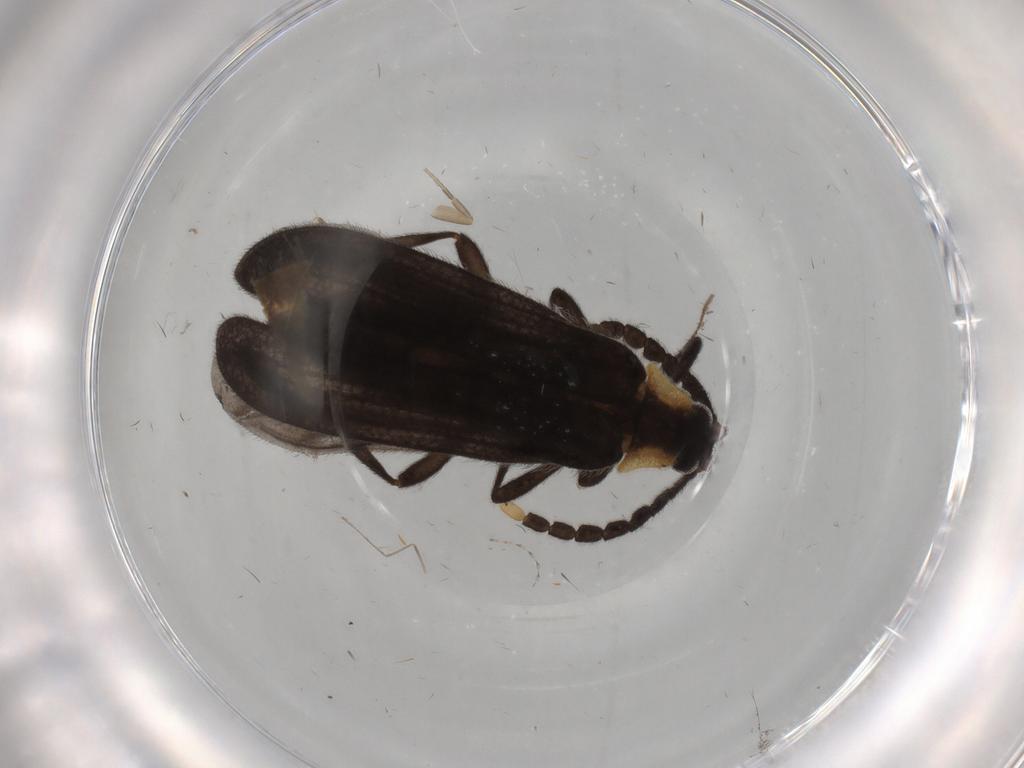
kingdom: Animalia
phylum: Arthropoda
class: Insecta
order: Coleoptera
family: Lycidae
